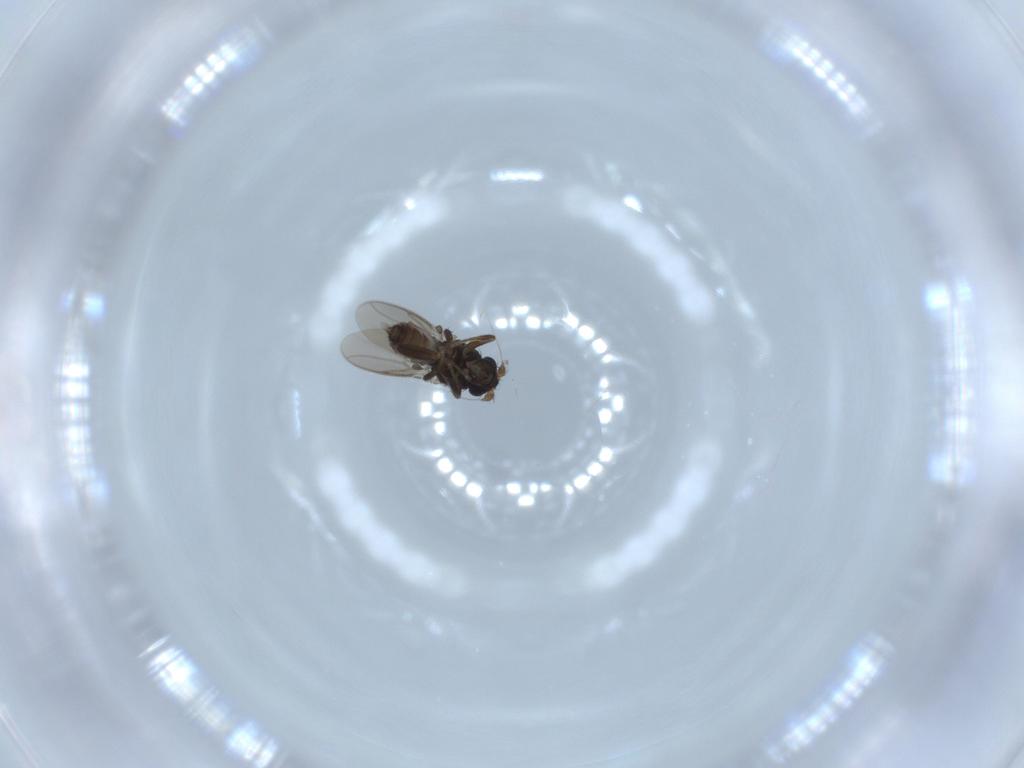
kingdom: Animalia
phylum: Arthropoda
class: Insecta
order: Diptera
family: Sphaeroceridae
